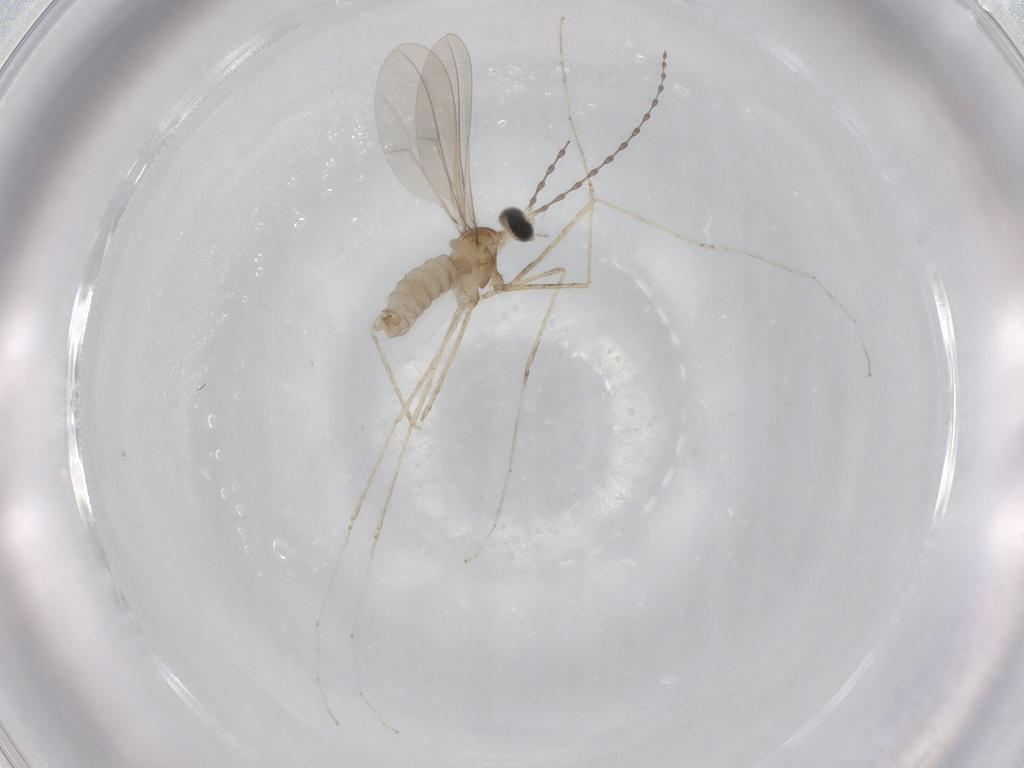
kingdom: Animalia
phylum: Arthropoda
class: Insecta
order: Diptera
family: Cecidomyiidae
